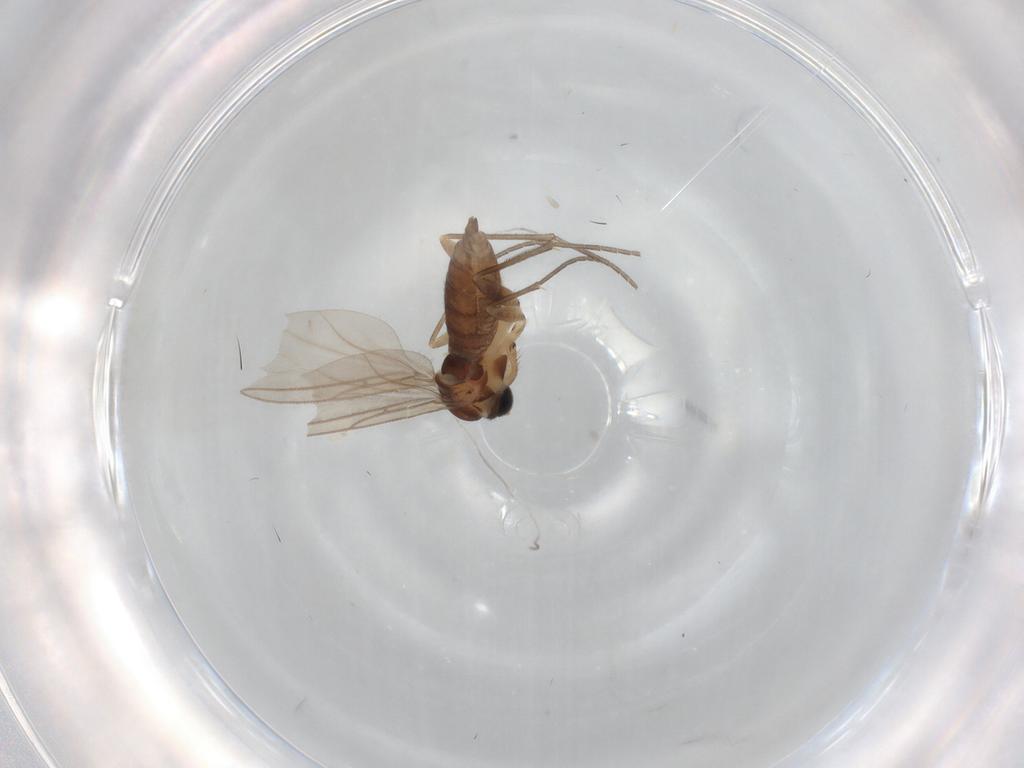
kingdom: Animalia
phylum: Arthropoda
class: Insecta
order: Diptera
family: Sciaridae
